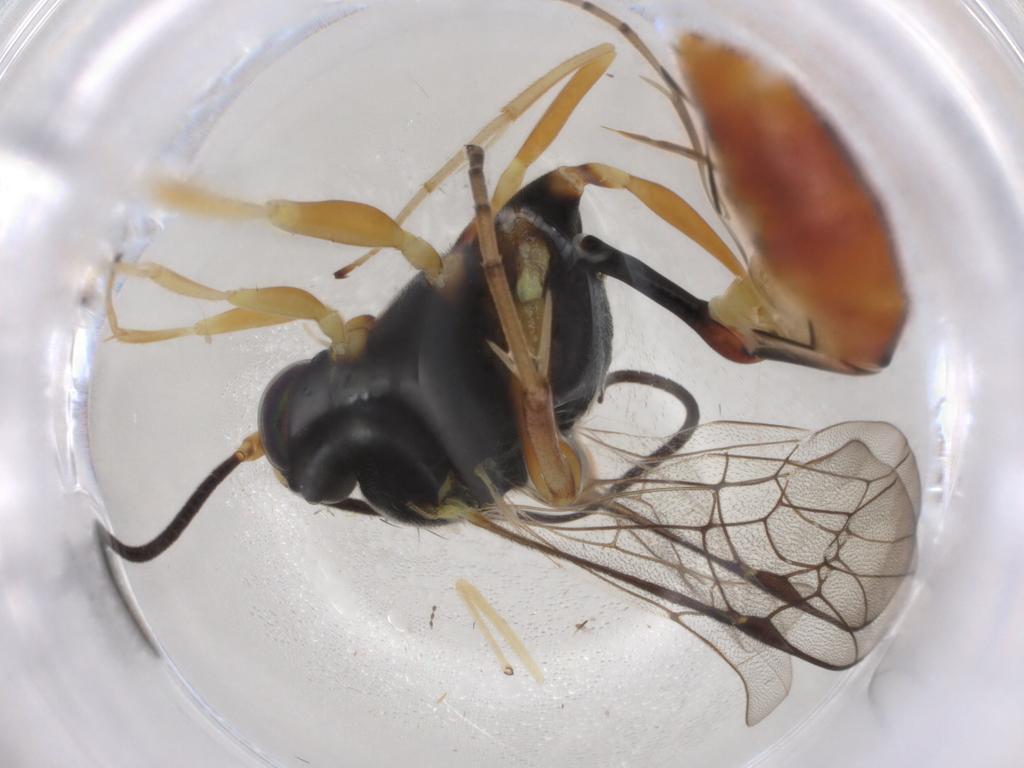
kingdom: Animalia
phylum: Arthropoda
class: Insecta
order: Hymenoptera
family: Ichneumonidae
